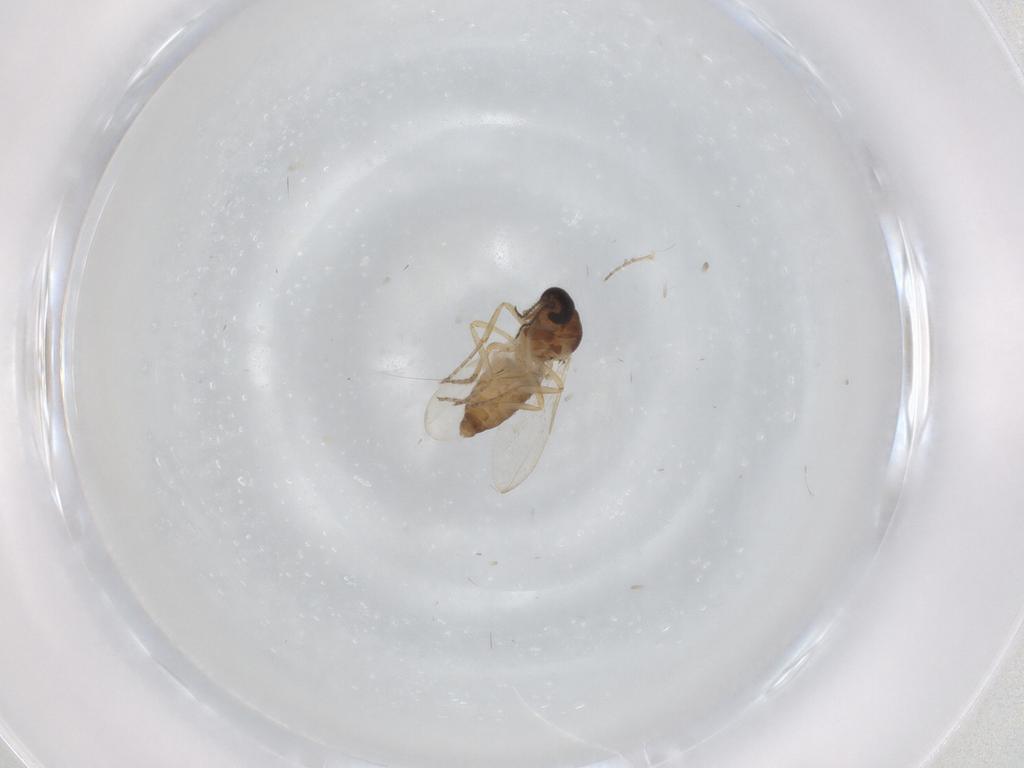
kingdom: Animalia
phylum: Arthropoda
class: Insecta
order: Diptera
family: Ceratopogonidae
